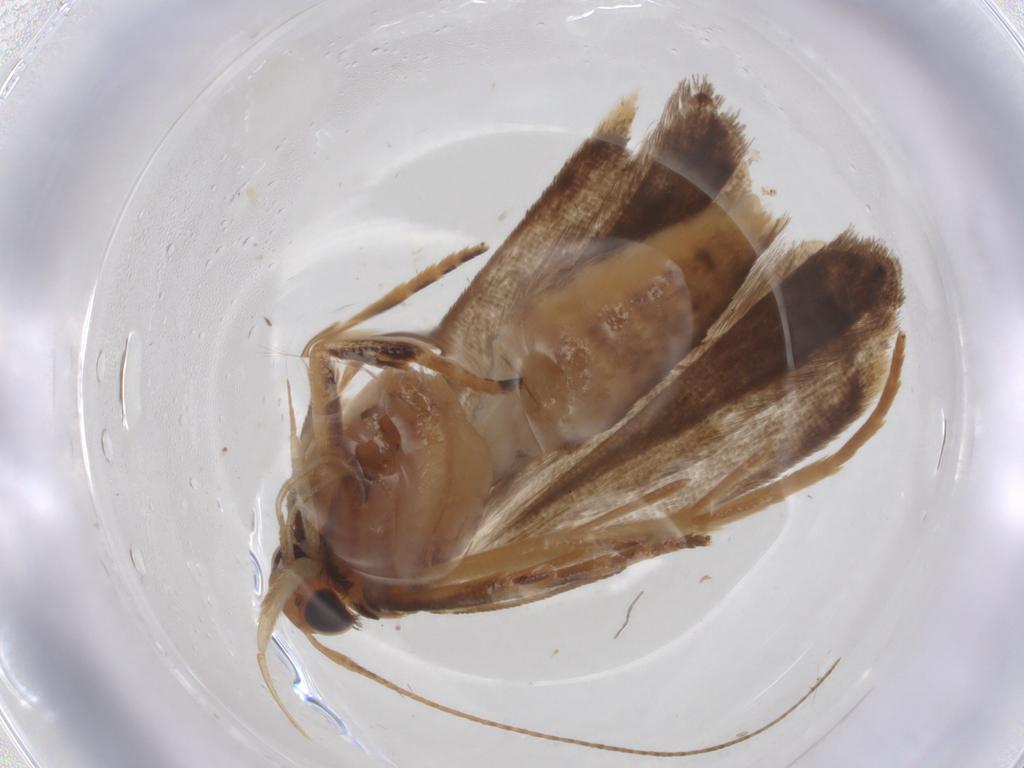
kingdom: Animalia
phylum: Arthropoda
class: Insecta
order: Lepidoptera
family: Gelechiidae
